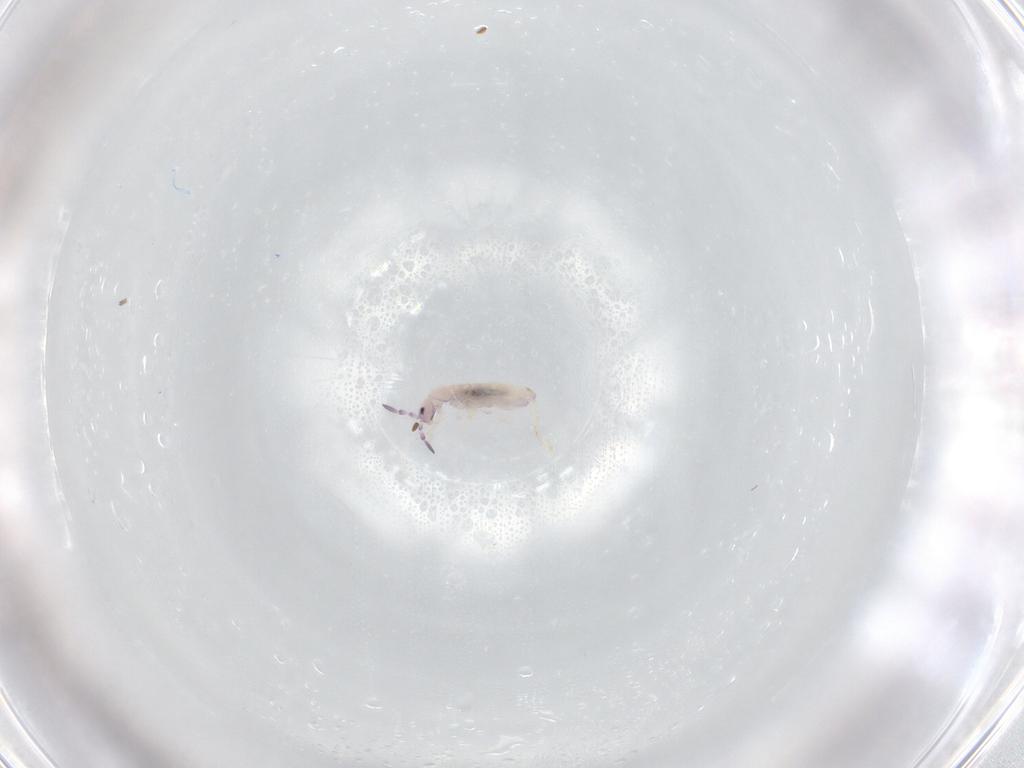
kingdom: Animalia
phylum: Arthropoda
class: Collembola
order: Entomobryomorpha
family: Entomobryidae
